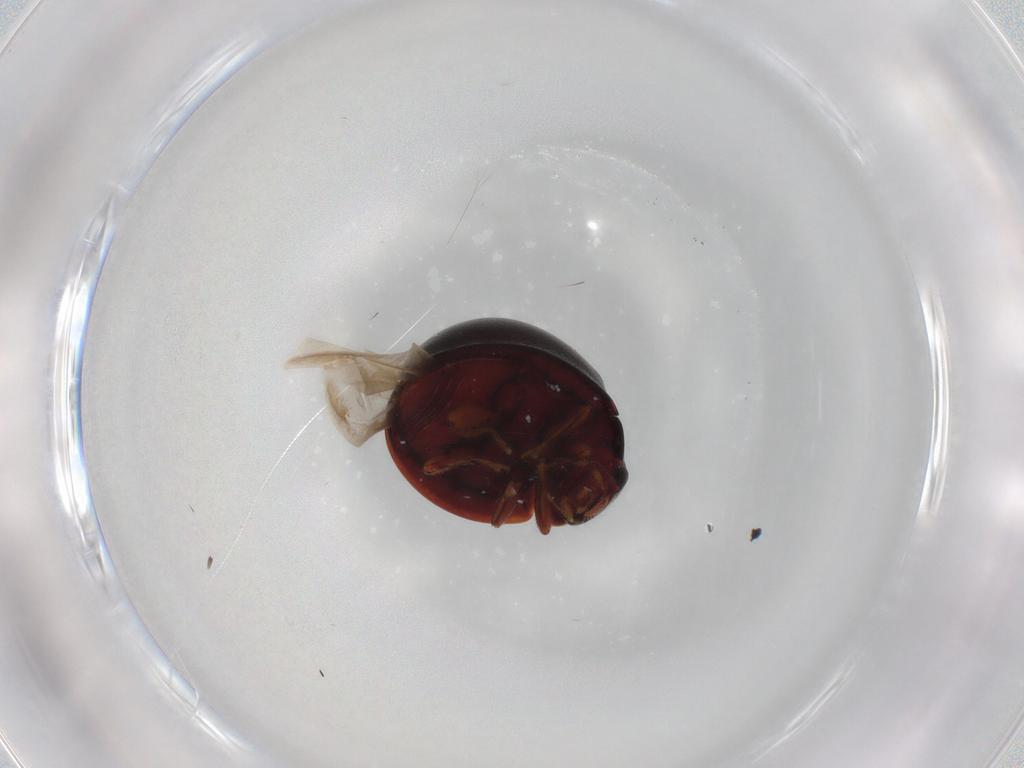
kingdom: Animalia
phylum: Arthropoda
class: Insecta
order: Coleoptera
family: Coccinellidae
